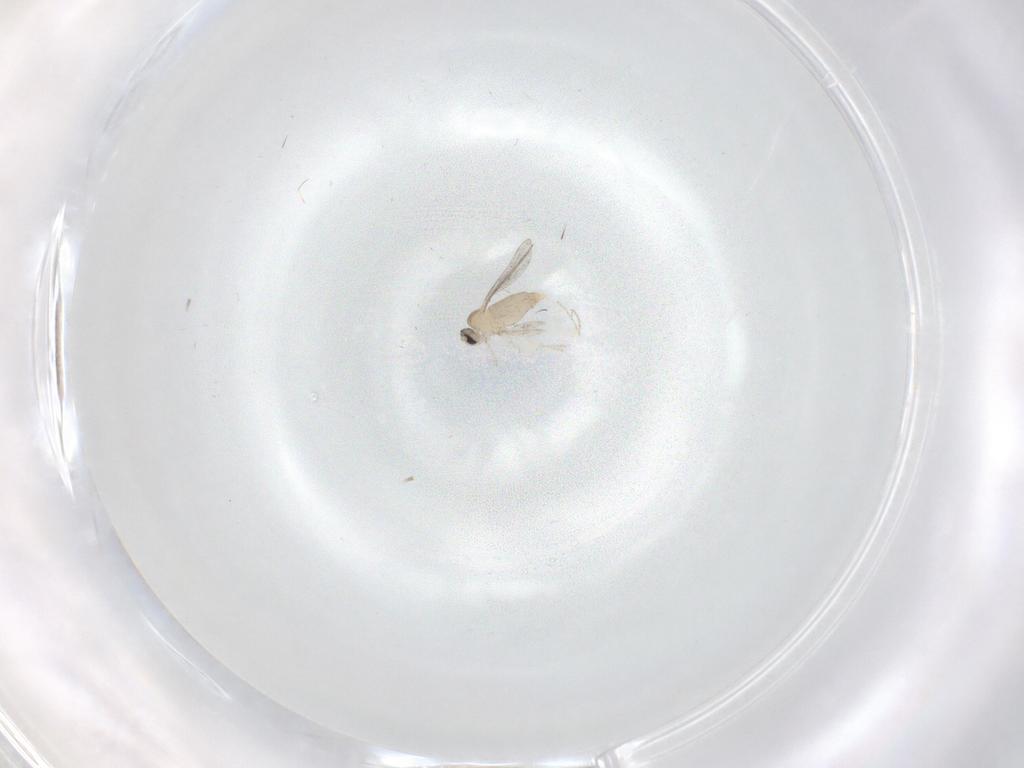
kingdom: Animalia
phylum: Arthropoda
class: Insecta
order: Diptera
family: Cecidomyiidae
